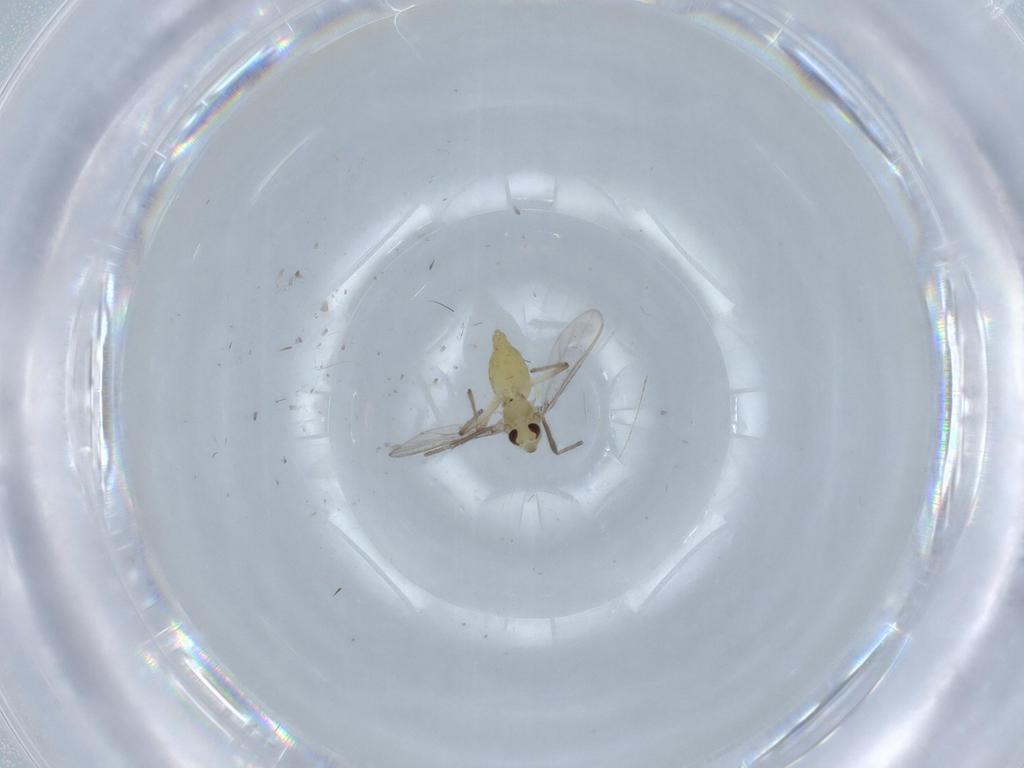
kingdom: Animalia
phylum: Arthropoda
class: Insecta
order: Diptera
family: Chironomidae
